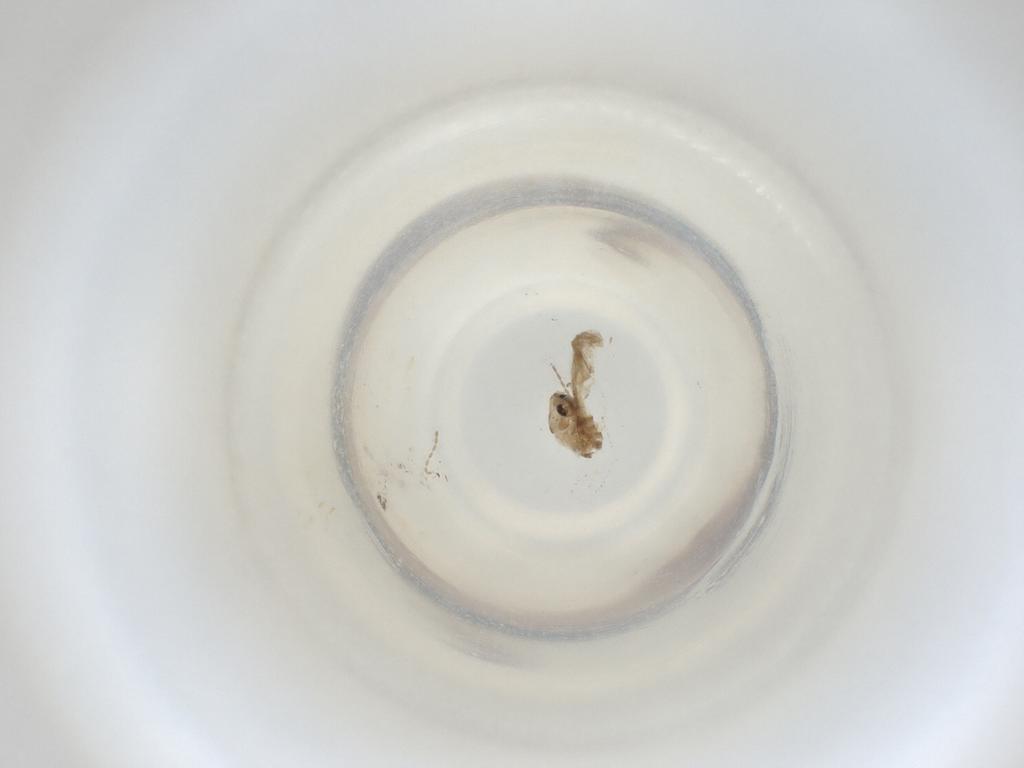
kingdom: Animalia
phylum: Arthropoda
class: Insecta
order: Diptera
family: Cecidomyiidae
